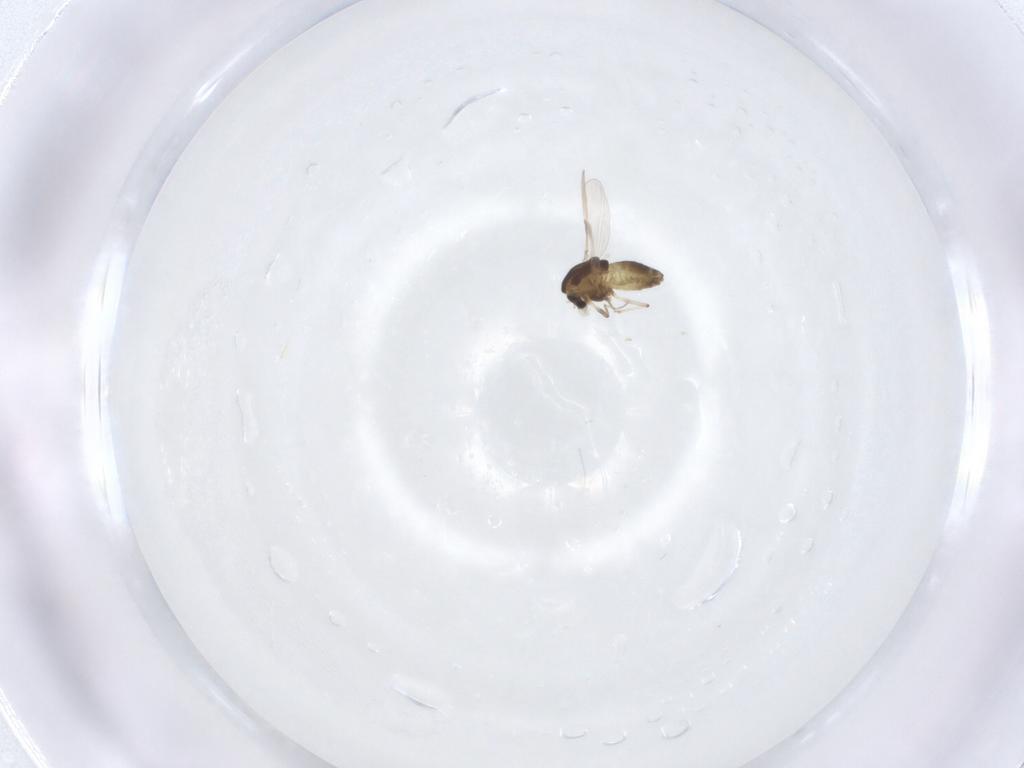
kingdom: Animalia
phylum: Arthropoda
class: Insecta
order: Diptera
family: Chironomidae
